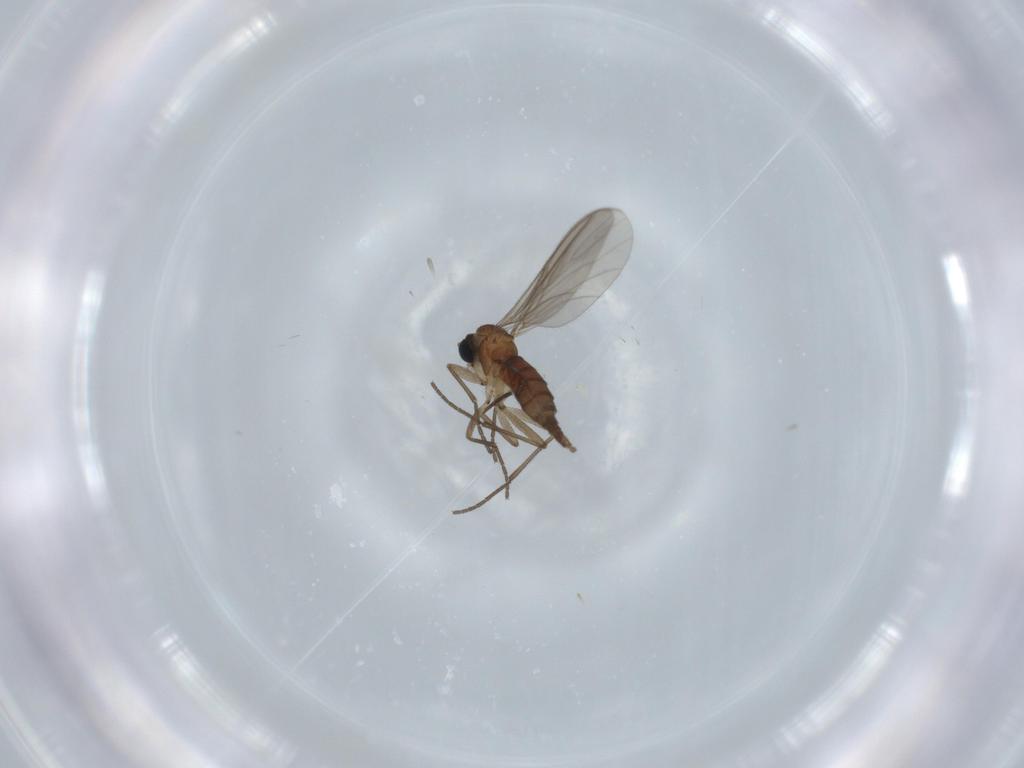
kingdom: Animalia
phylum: Arthropoda
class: Insecta
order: Diptera
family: Sciaridae
